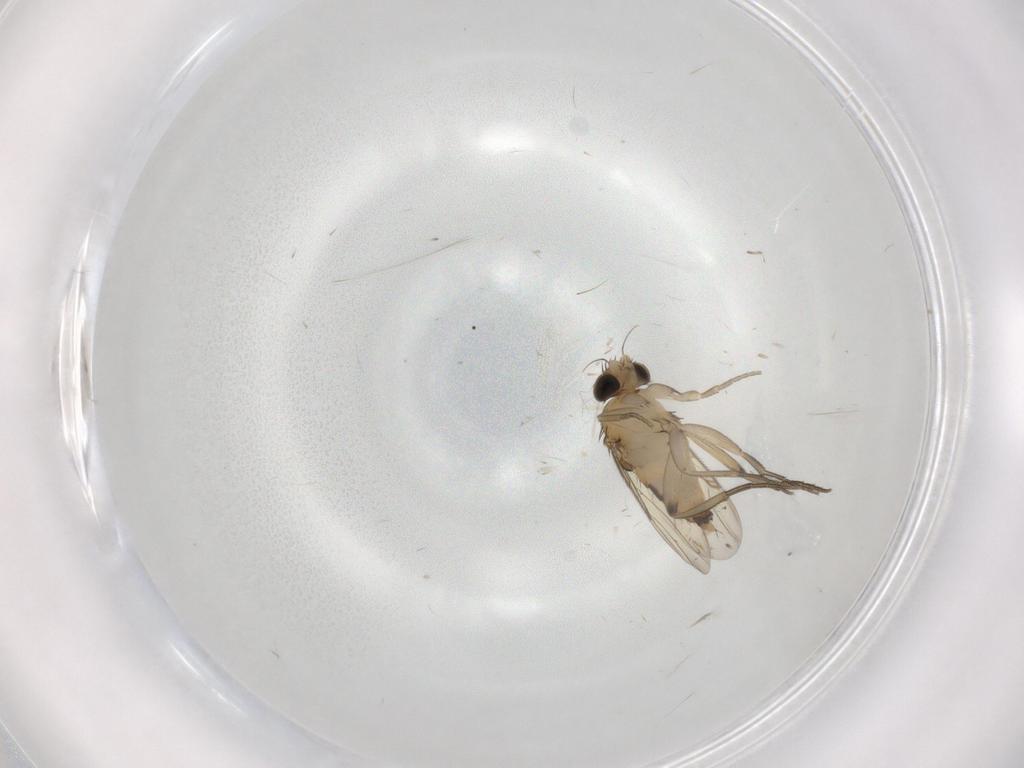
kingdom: Animalia
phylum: Arthropoda
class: Insecta
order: Diptera
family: Phoridae
